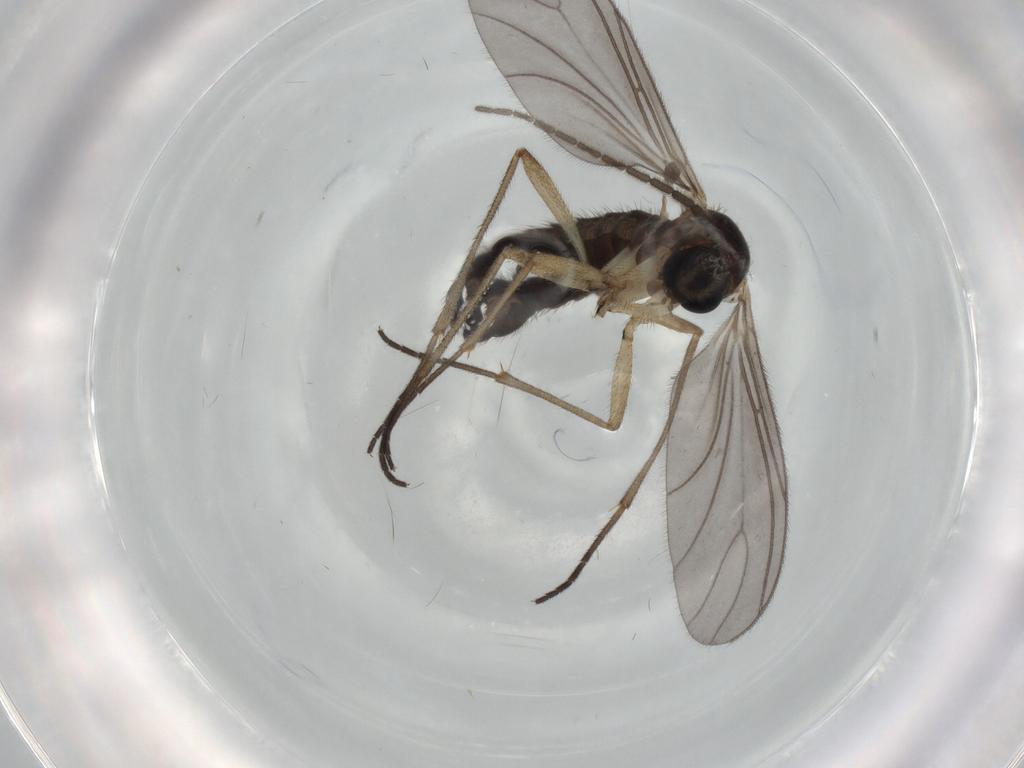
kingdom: Animalia
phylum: Arthropoda
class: Insecta
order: Diptera
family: Sciaridae
